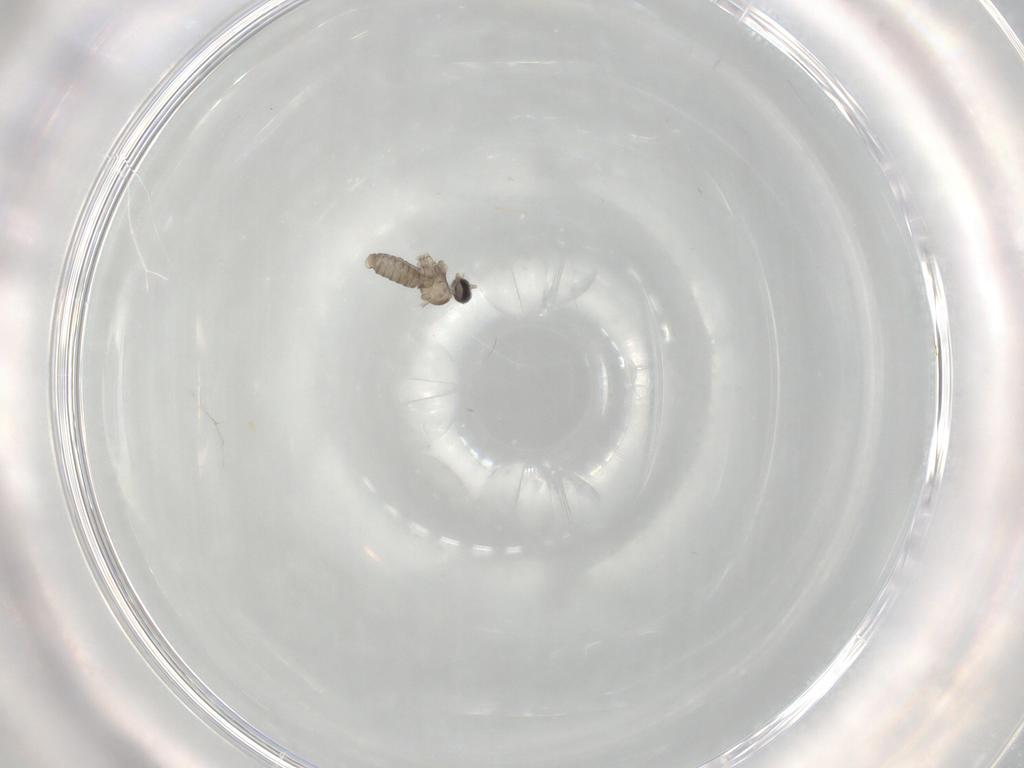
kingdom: Animalia
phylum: Arthropoda
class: Insecta
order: Diptera
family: Cecidomyiidae
